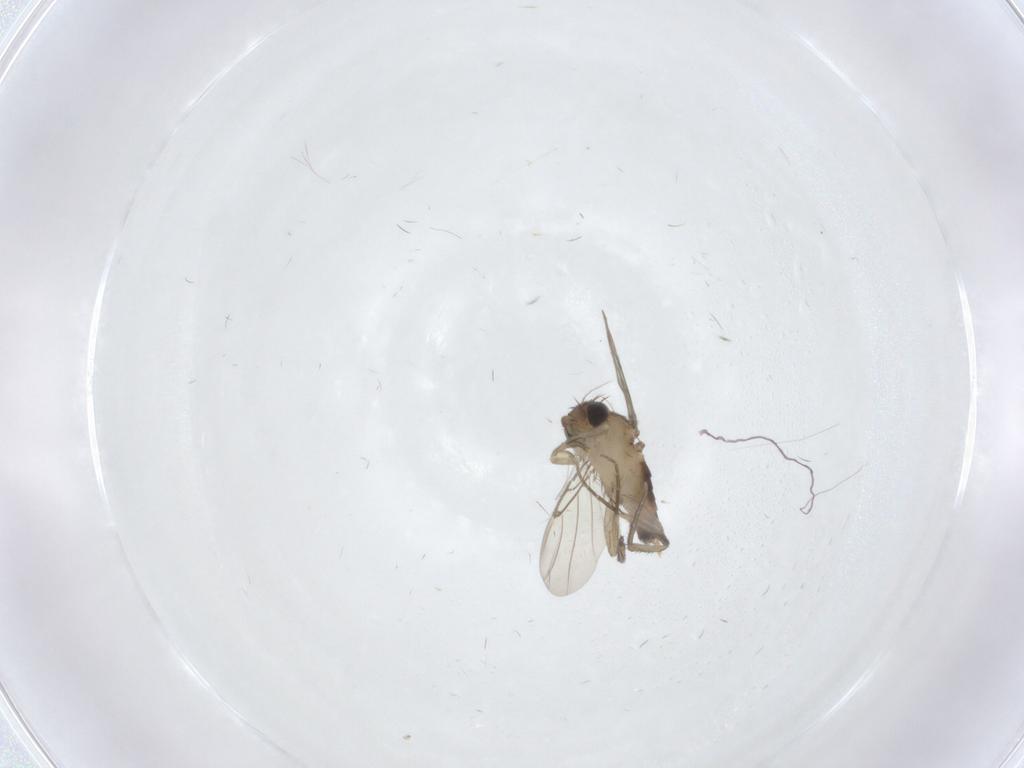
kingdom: Animalia
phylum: Arthropoda
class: Insecta
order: Diptera
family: Phoridae
